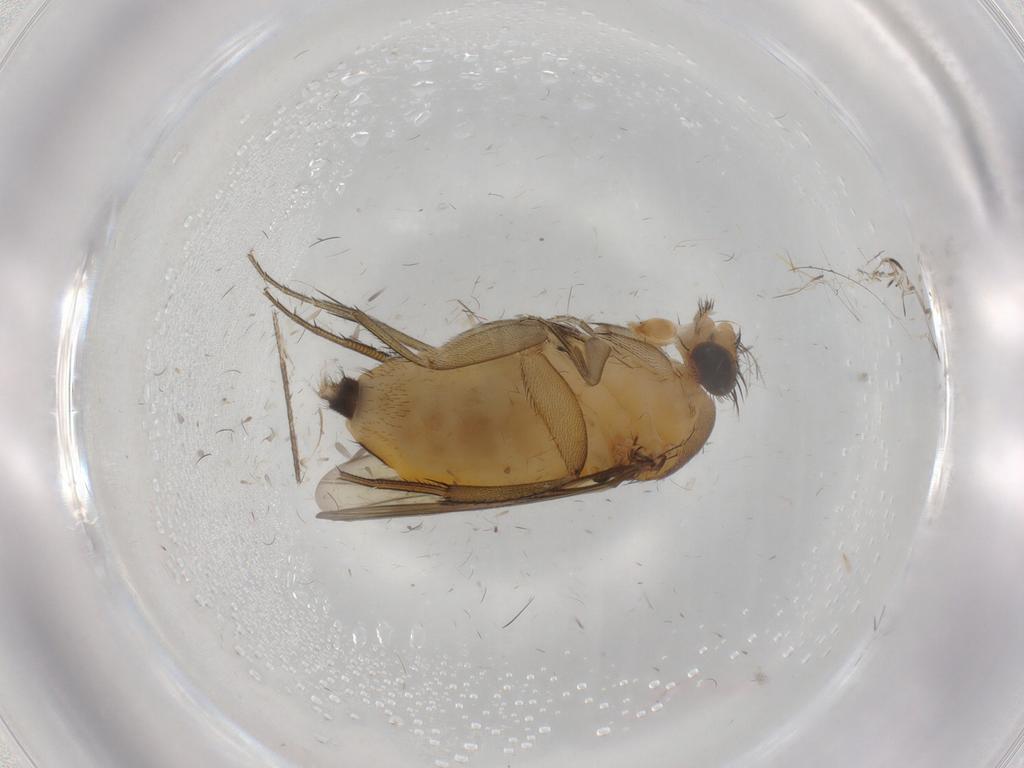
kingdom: Animalia
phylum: Arthropoda
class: Insecta
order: Diptera
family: Chironomidae
